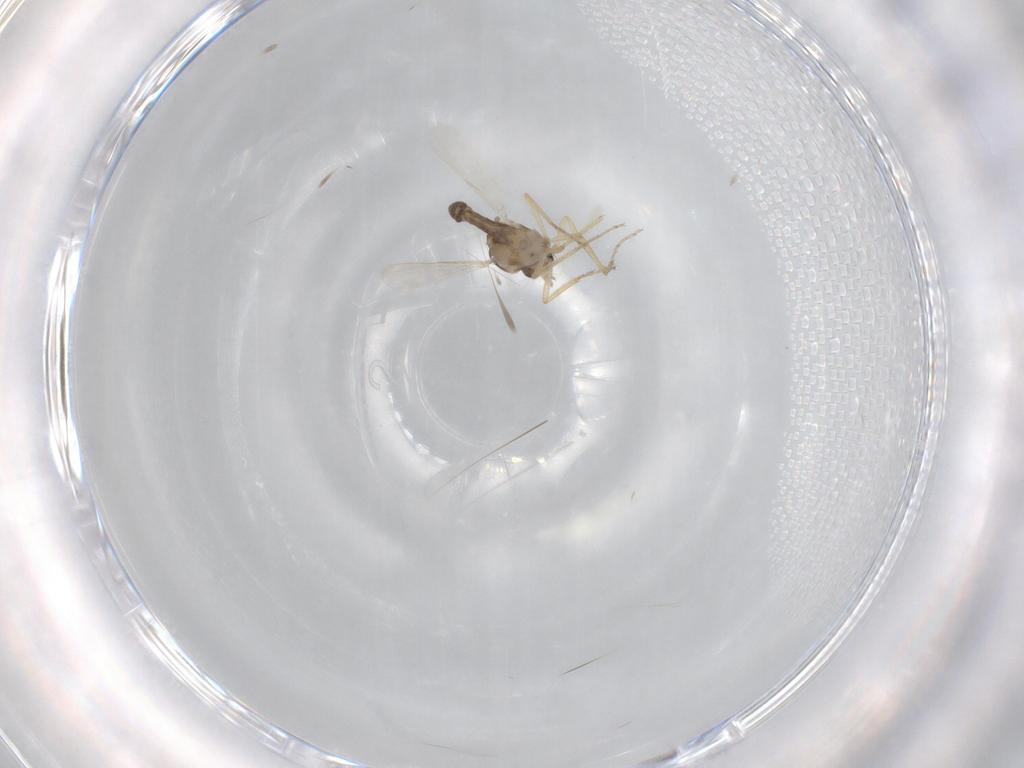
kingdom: Animalia
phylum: Arthropoda
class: Insecta
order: Diptera
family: Ceratopogonidae
